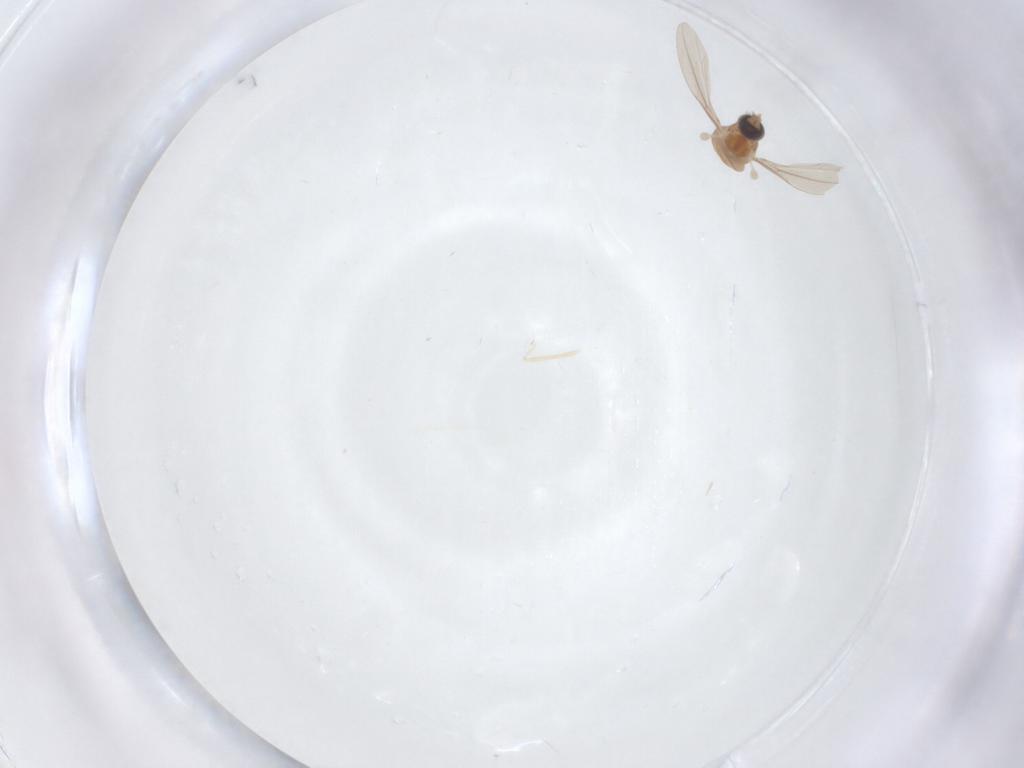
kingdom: Animalia
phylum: Arthropoda
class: Insecta
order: Diptera
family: Cecidomyiidae
